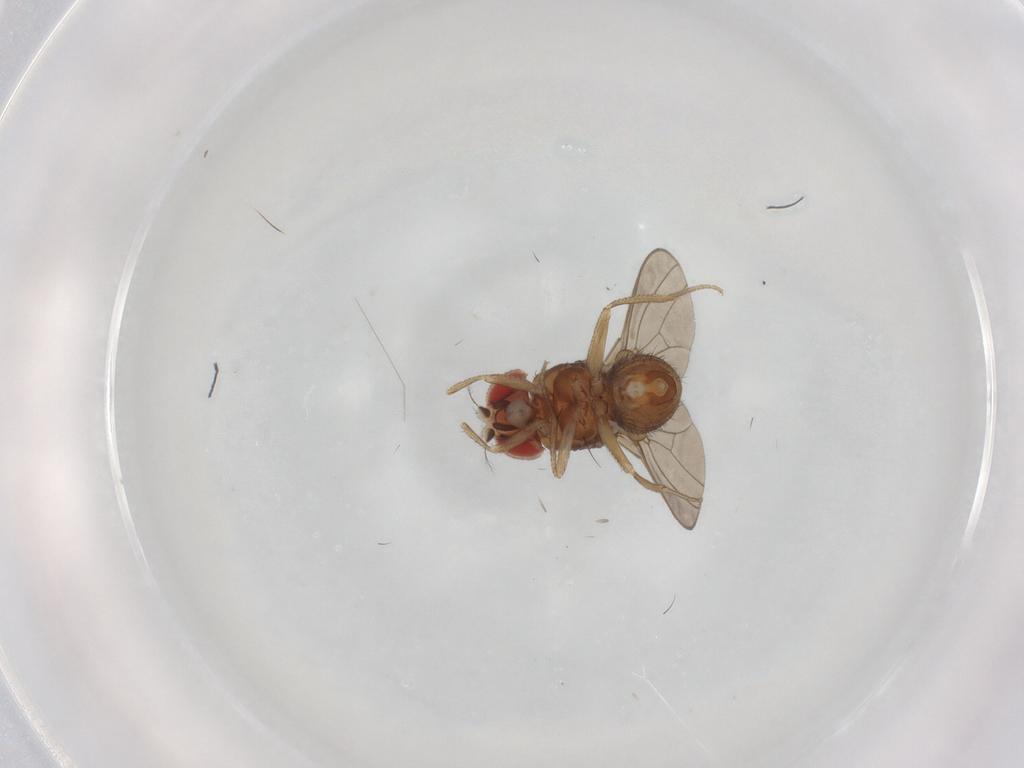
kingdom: Animalia
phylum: Arthropoda
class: Insecta
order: Diptera
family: Drosophilidae
